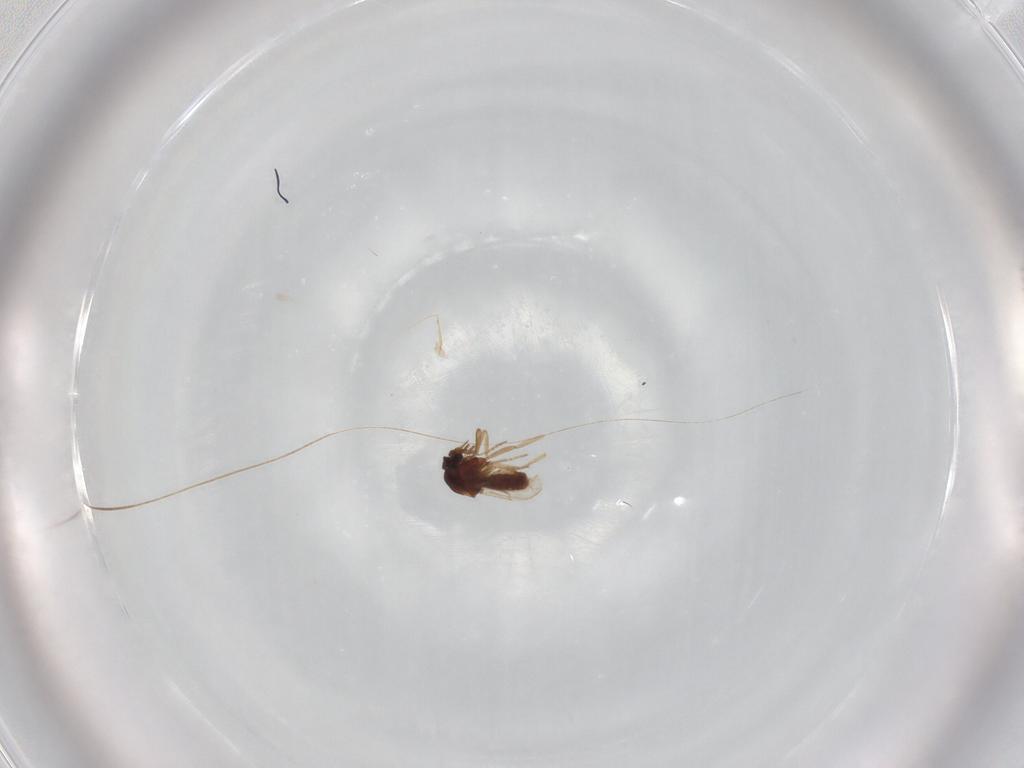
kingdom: Animalia
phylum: Arthropoda
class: Insecta
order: Diptera
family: Ceratopogonidae
